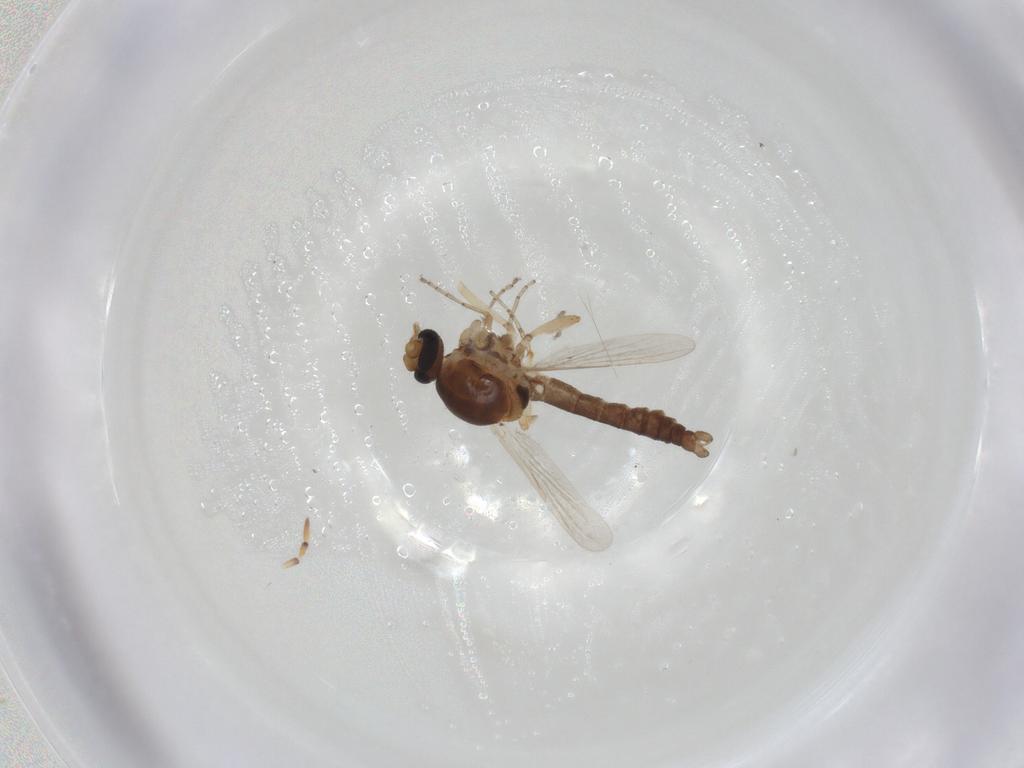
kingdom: Animalia
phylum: Arthropoda
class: Insecta
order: Diptera
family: Ceratopogonidae
